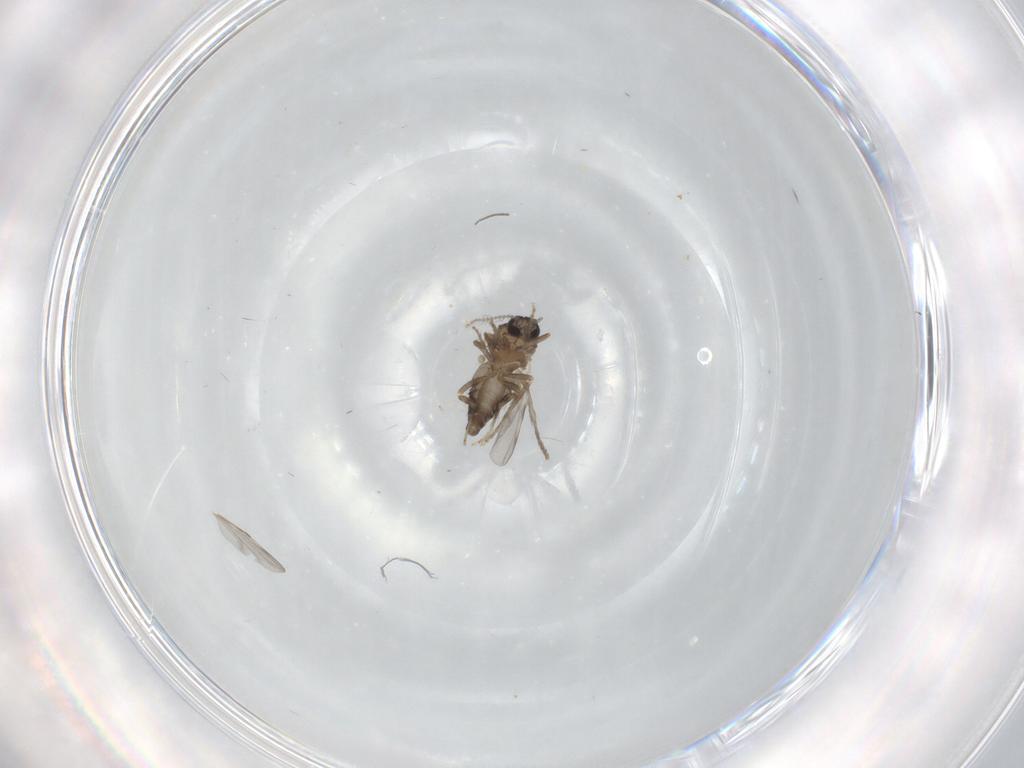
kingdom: Animalia
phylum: Arthropoda
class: Insecta
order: Diptera
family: Ceratopogonidae
